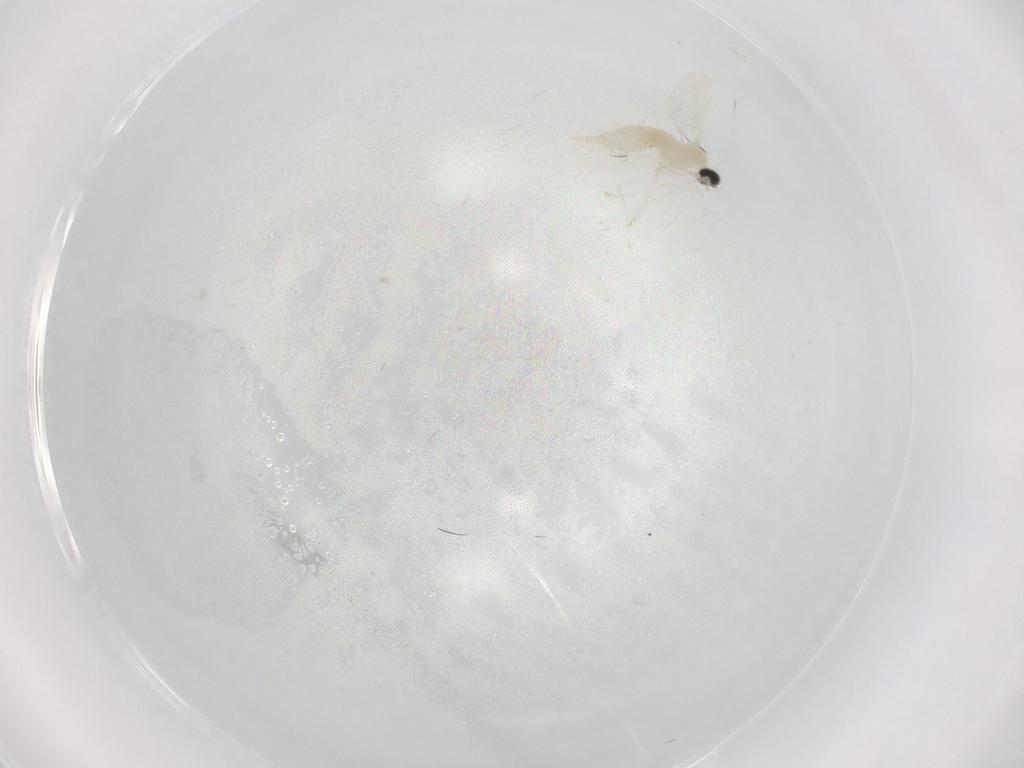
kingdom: Animalia
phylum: Arthropoda
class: Insecta
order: Diptera
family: Cecidomyiidae
